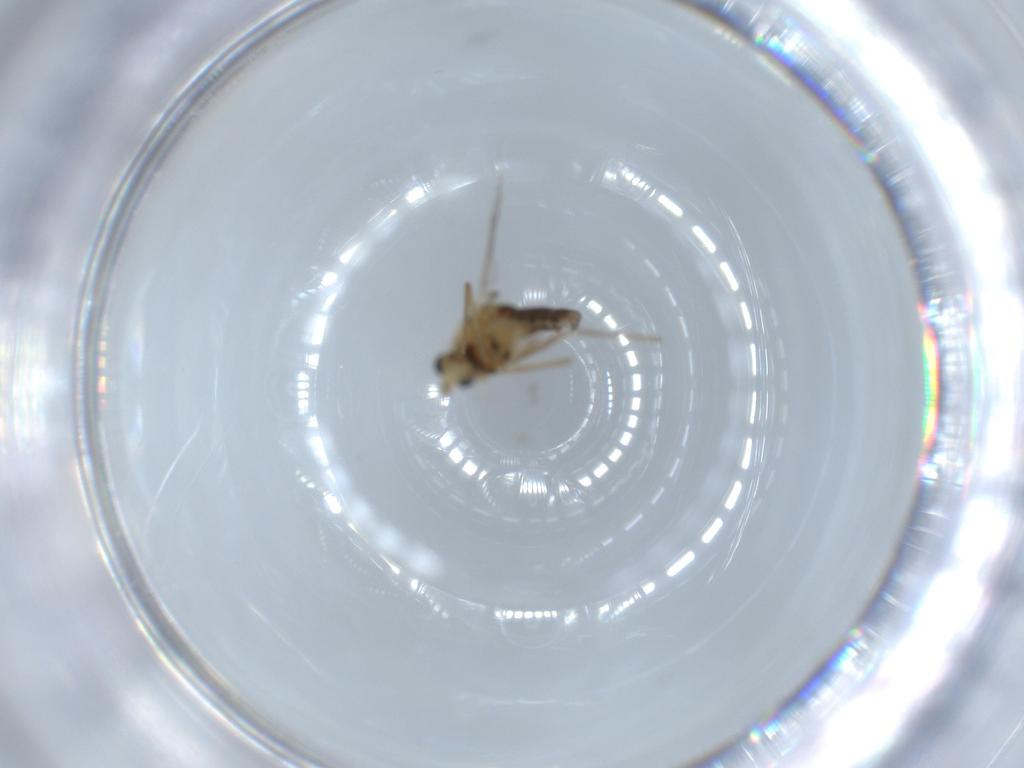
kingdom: Animalia
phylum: Arthropoda
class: Insecta
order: Diptera
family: Chironomidae
